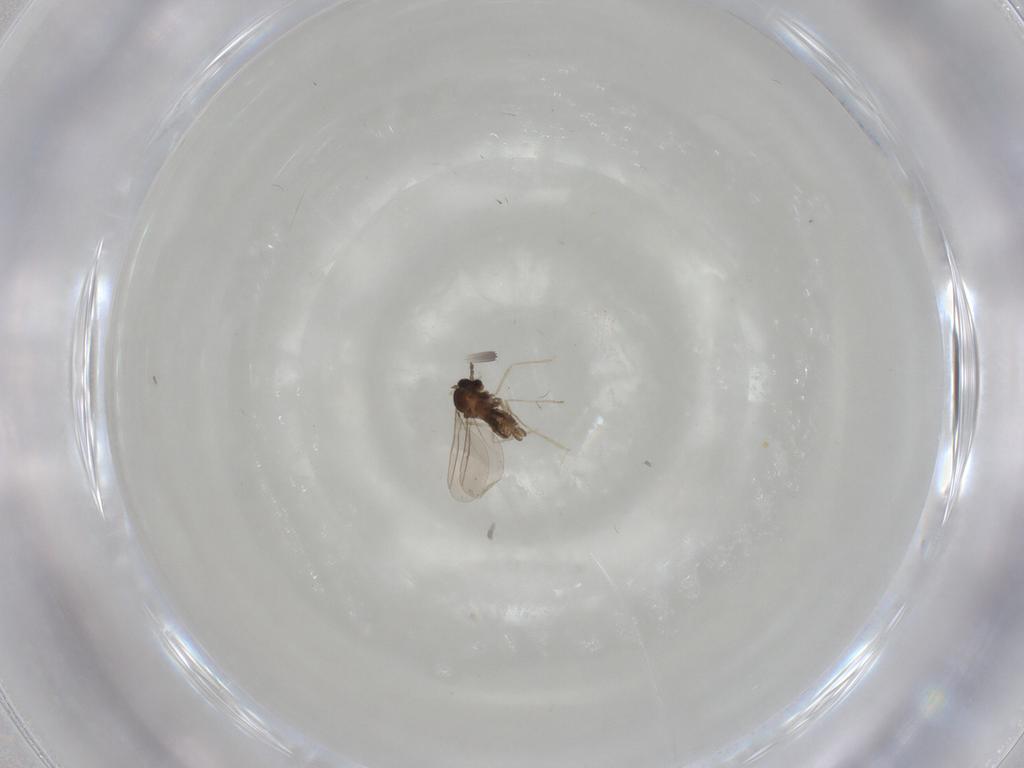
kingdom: Animalia
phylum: Arthropoda
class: Insecta
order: Diptera
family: Cecidomyiidae
